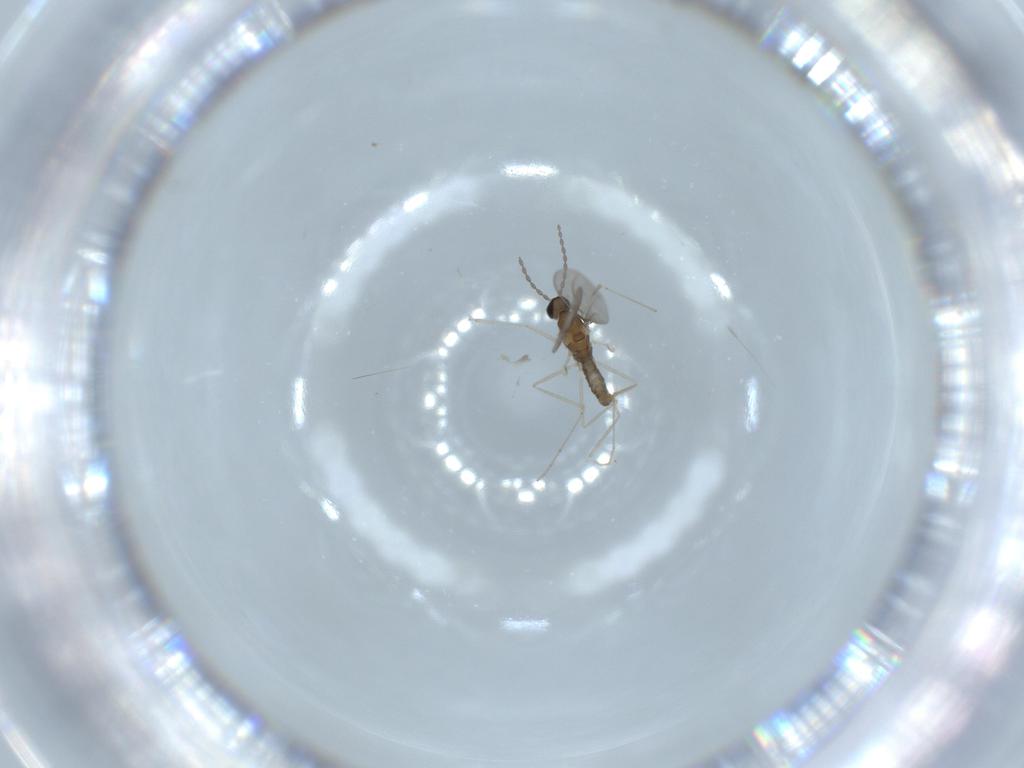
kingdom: Animalia
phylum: Arthropoda
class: Insecta
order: Diptera
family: Cecidomyiidae
